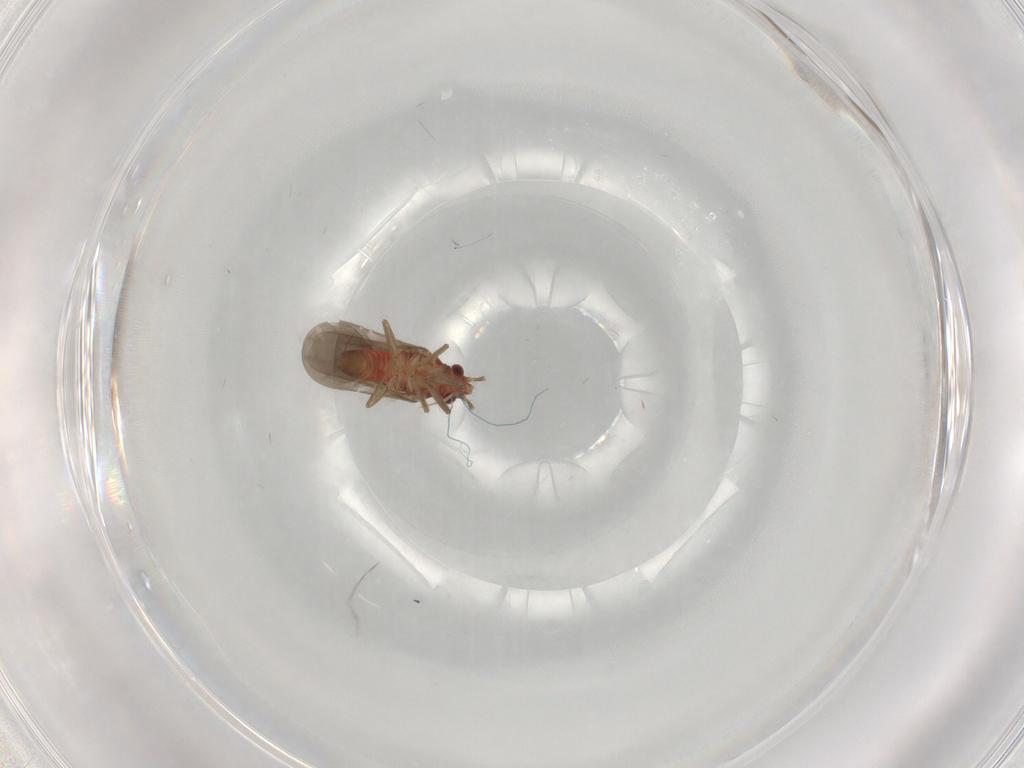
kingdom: Animalia
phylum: Arthropoda
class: Insecta
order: Hemiptera
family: Ceratocombidae
